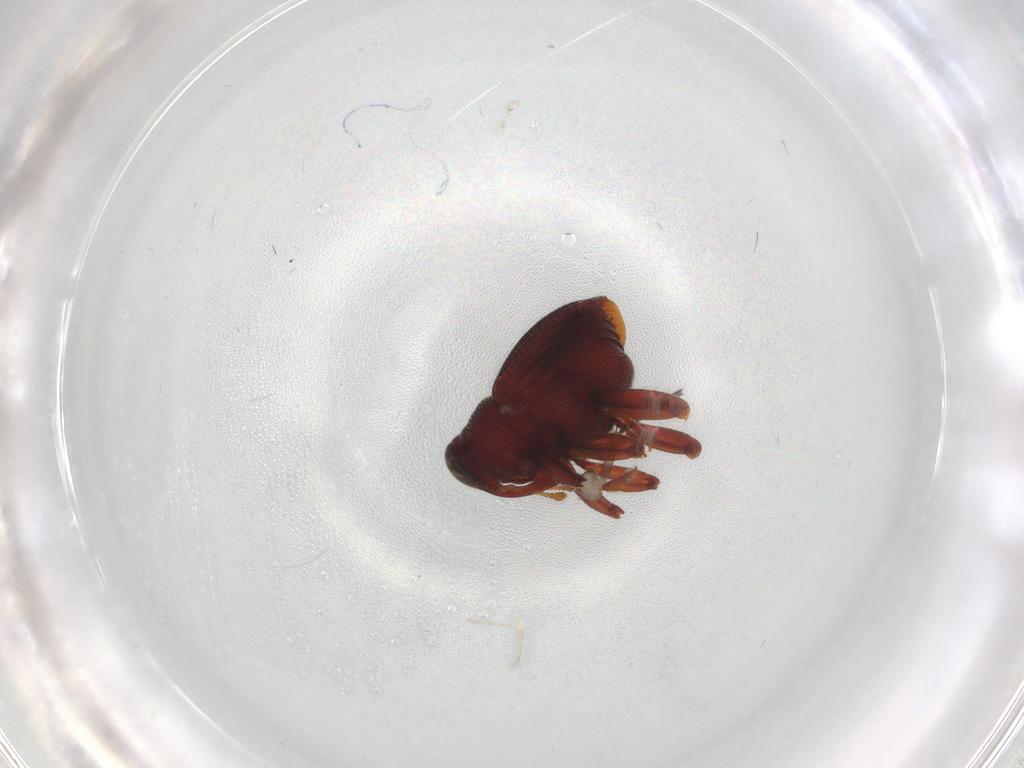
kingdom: Animalia
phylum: Arthropoda
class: Insecta
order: Coleoptera
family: Curculionidae
